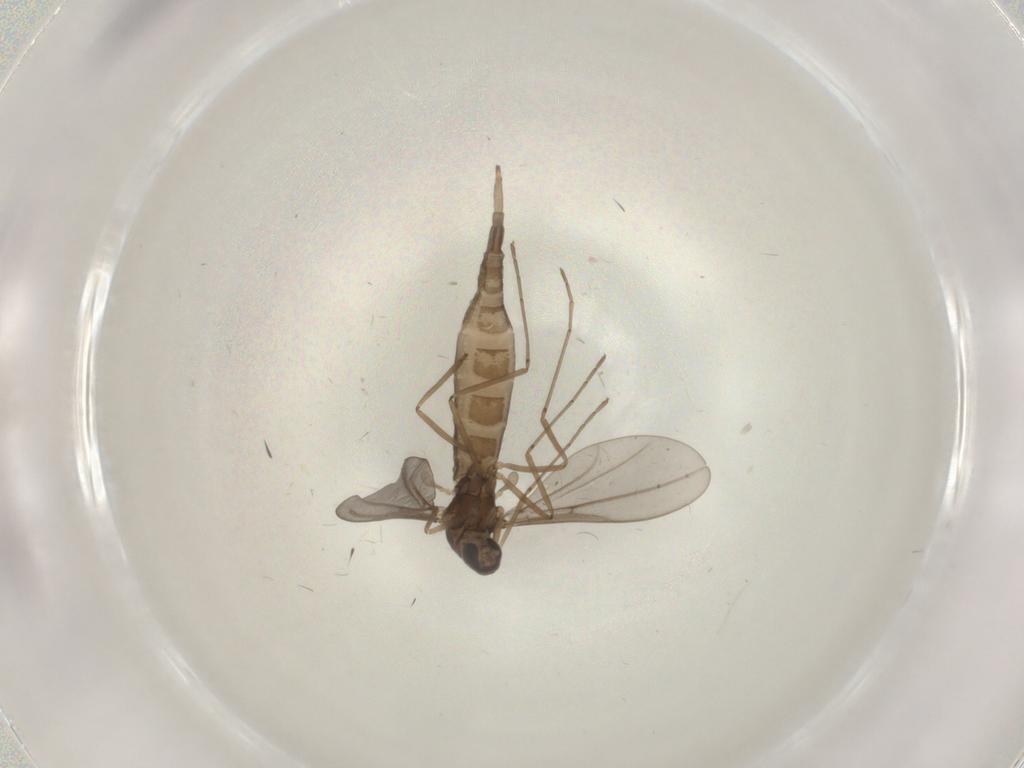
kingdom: Animalia
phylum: Arthropoda
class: Insecta
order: Diptera
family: Cecidomyiidae
